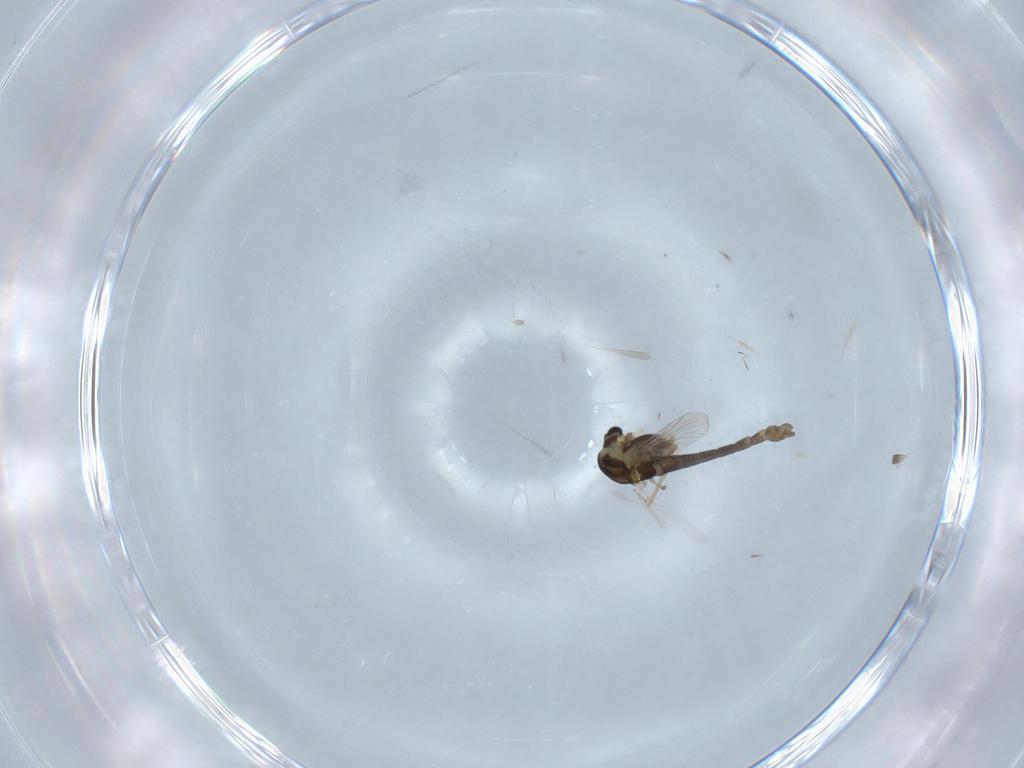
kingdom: Animalia
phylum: Arthropoda
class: Insecta
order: Diptera
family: Chironomidae
